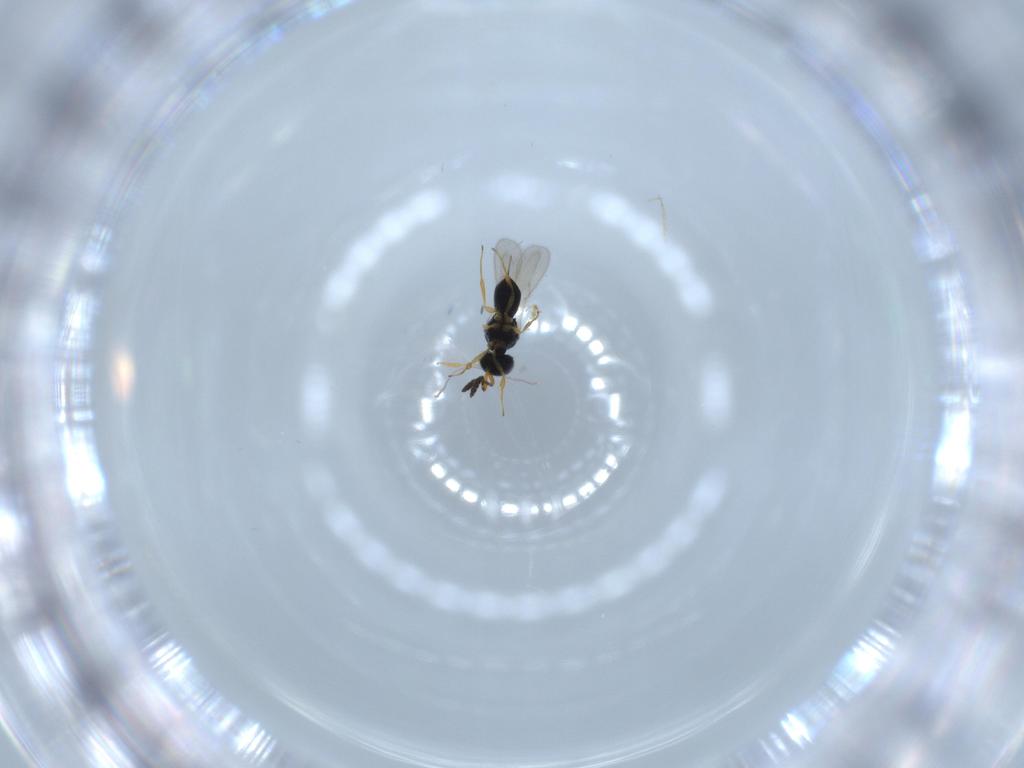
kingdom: Animalia
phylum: Arthropoda
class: Insecta
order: Hymenoptera
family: Scelionidae
